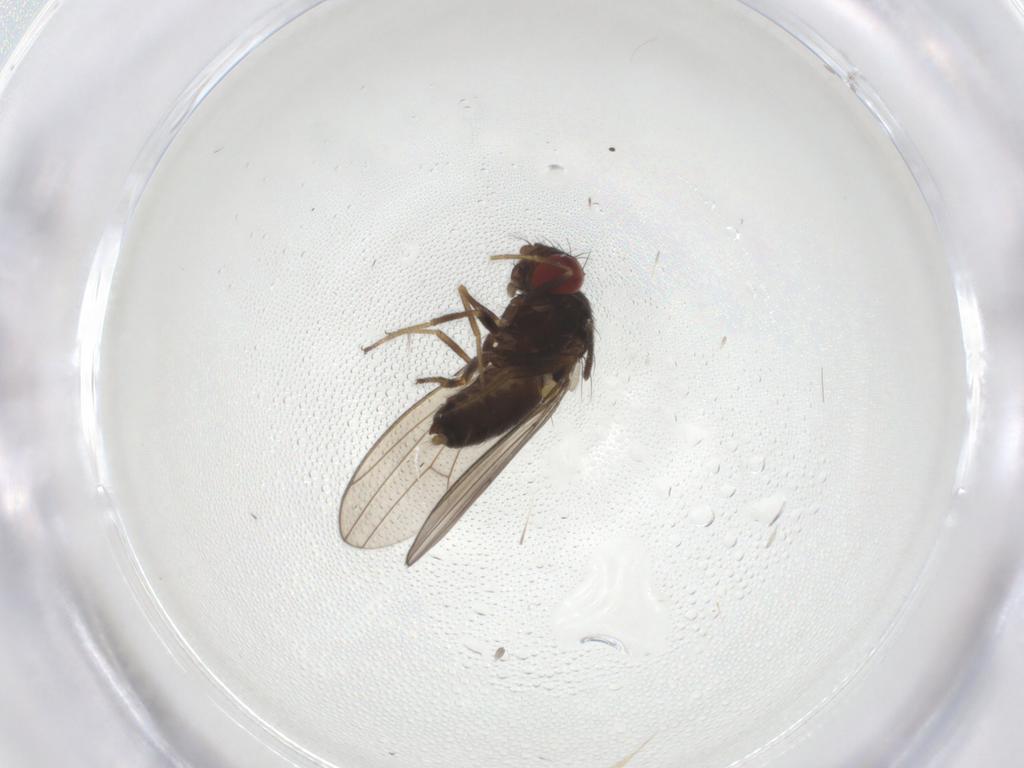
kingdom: Animalia
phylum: Arthropoda
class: Insecta
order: Diptera
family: Drosophilidae
